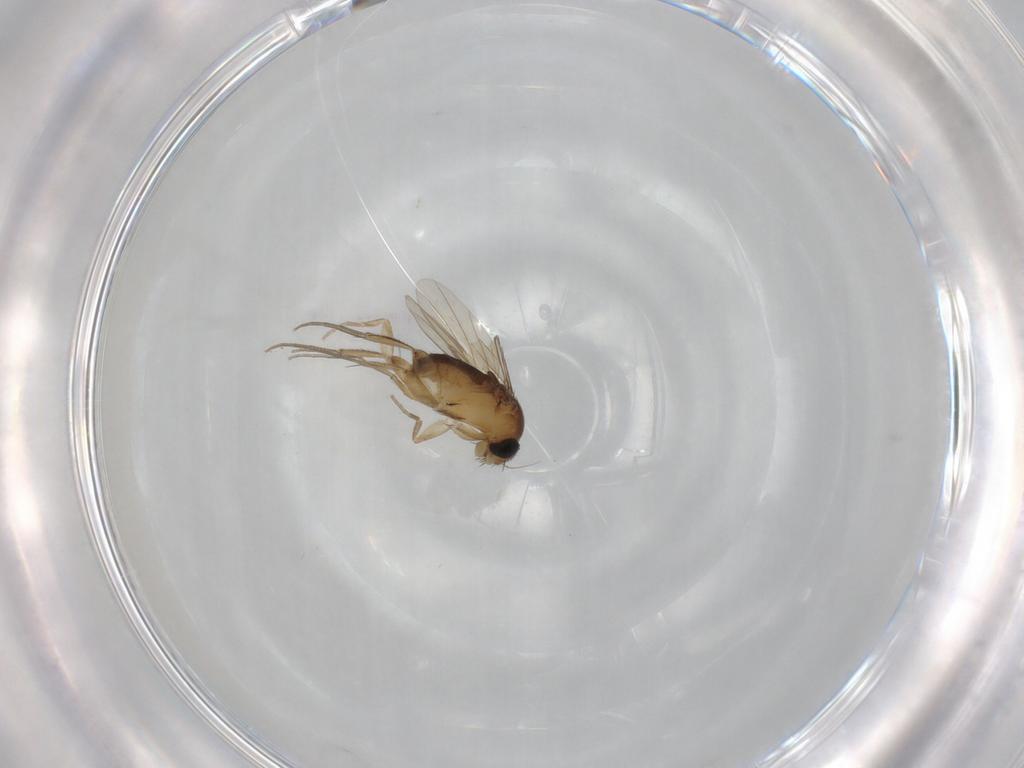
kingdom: Animalia
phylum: Arthropoda
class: Insecta
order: Diptera
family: Phoridae
